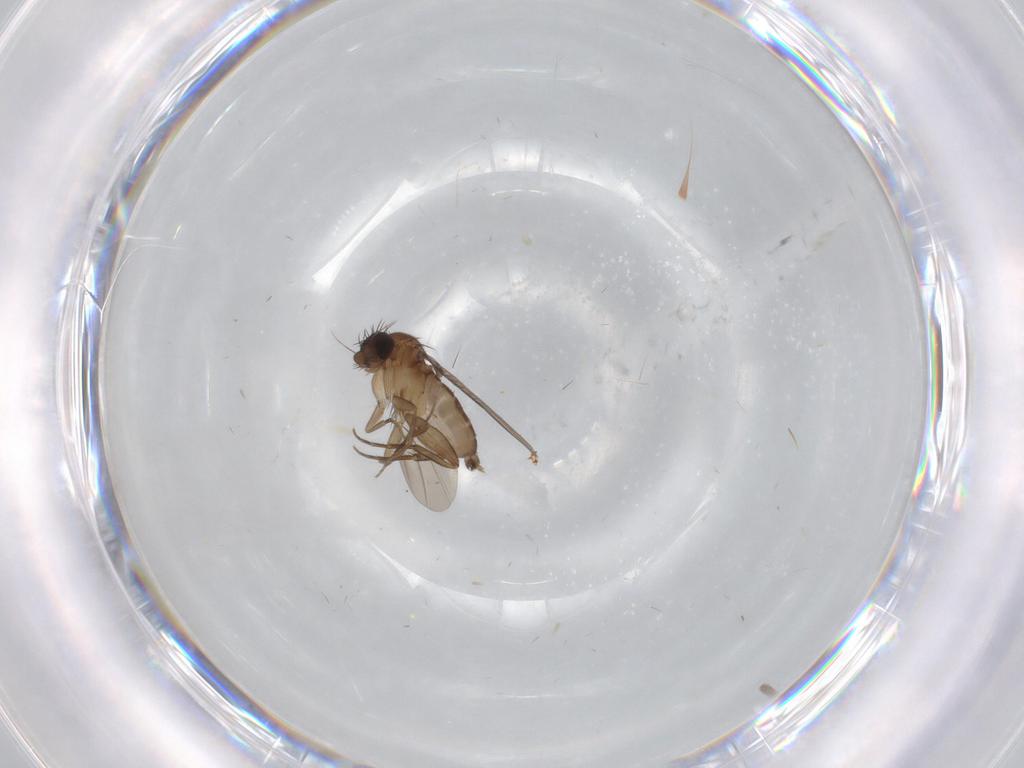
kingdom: Animalia
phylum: Arthropoda
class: Insecta
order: Diptera
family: Phoridae
